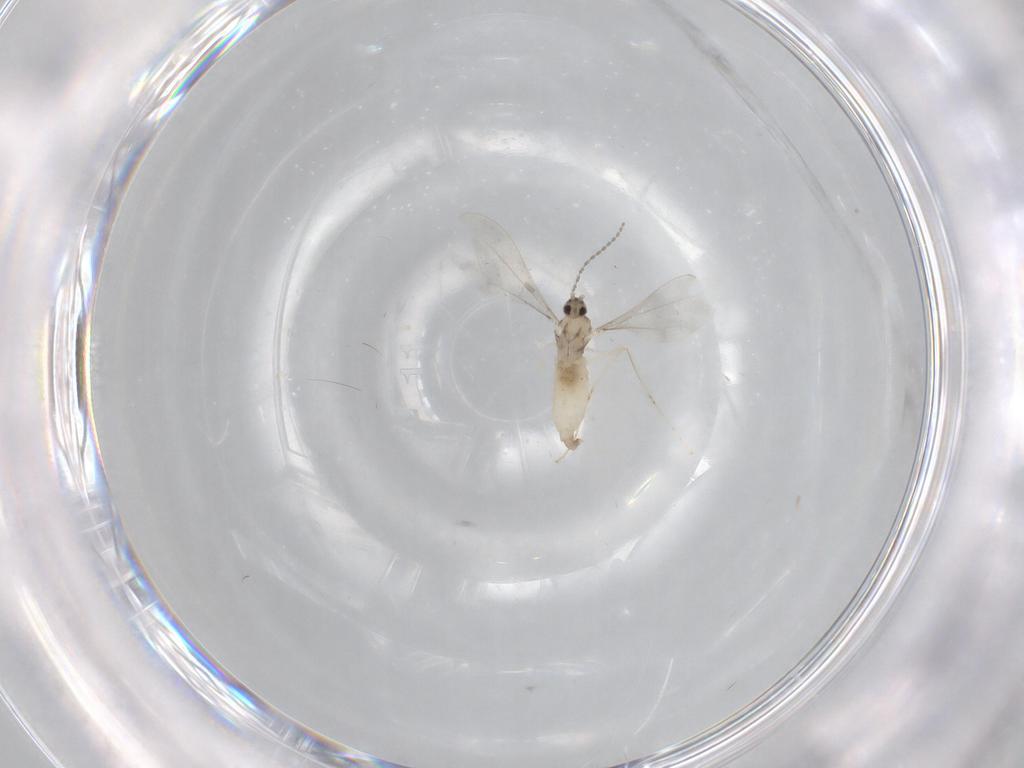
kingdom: Animalia
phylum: Arthropoda
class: Insecta
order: Diptera
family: Cecidomyiidae
